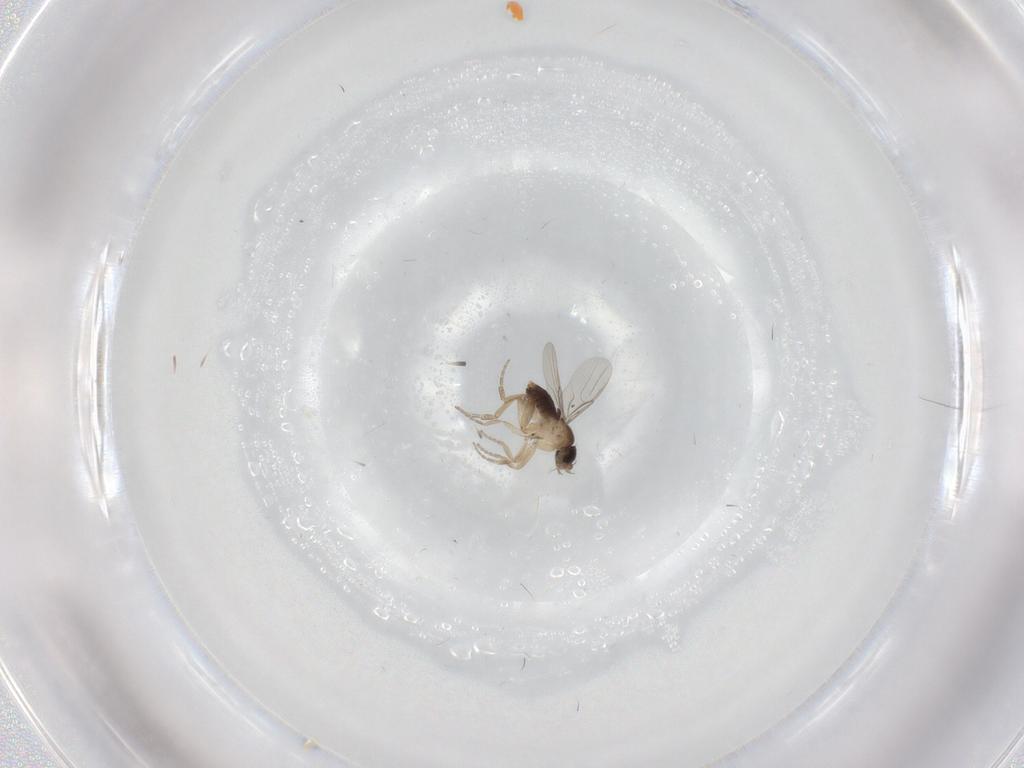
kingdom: Animalia
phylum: Arthropoda
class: Insecta
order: Diptera
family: Phoridae
